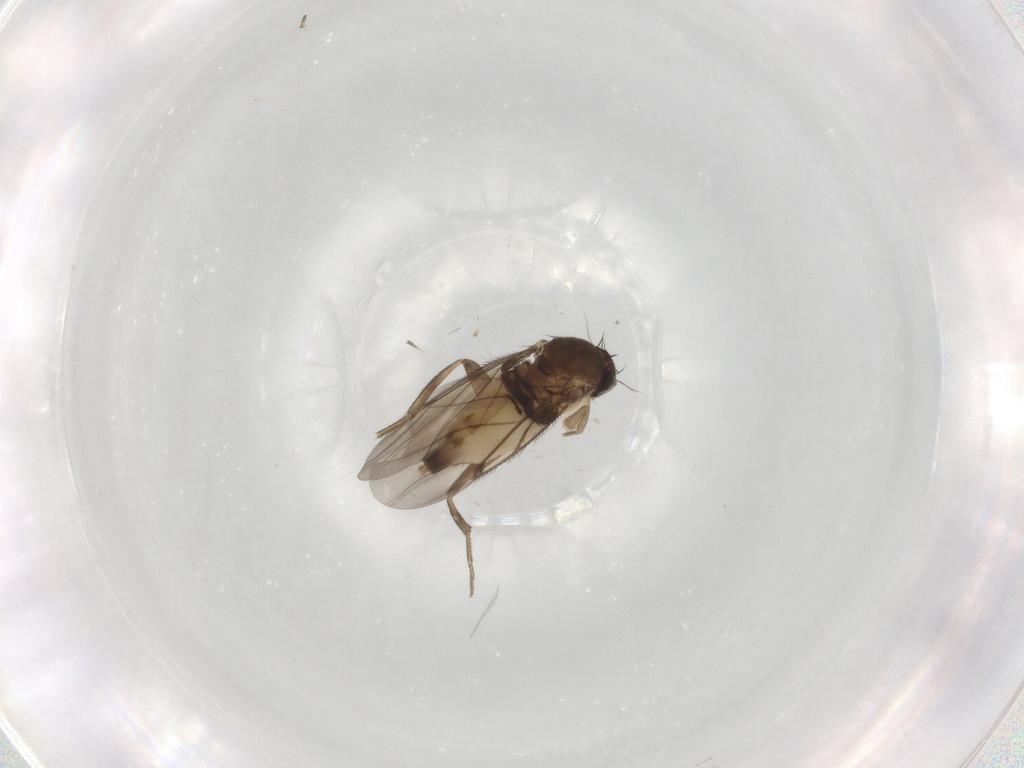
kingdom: Animalia
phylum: Arthropoda
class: Insecta
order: Diptera
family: Phoridae
